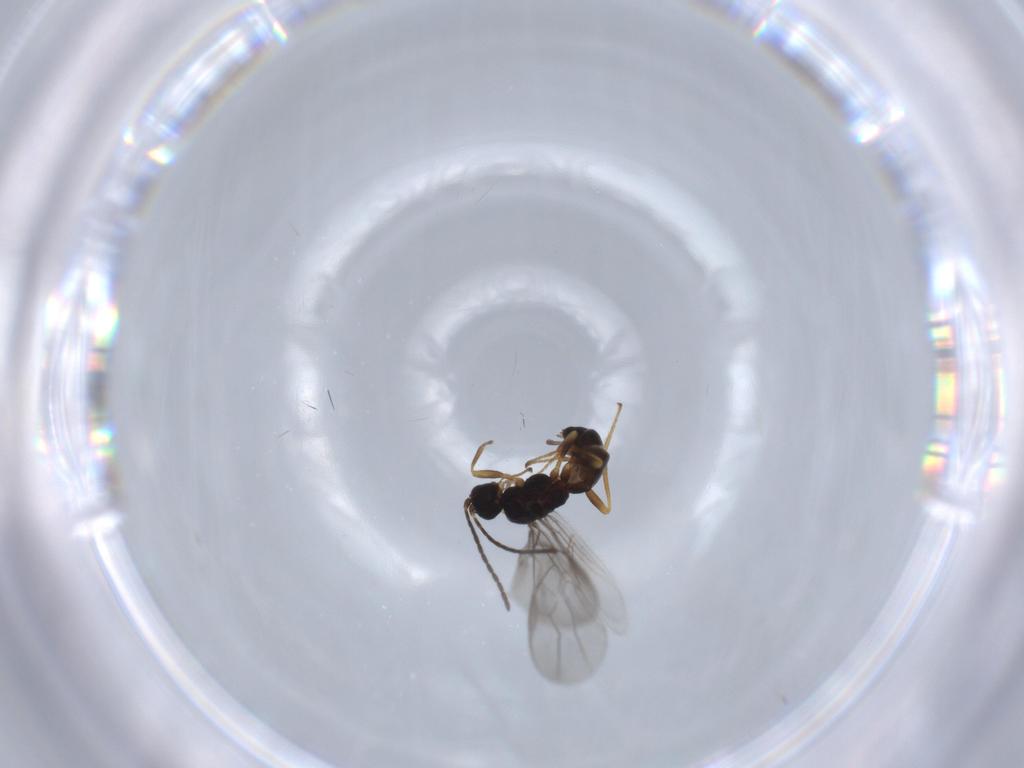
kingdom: Animalia
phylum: Arthropoda
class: Insecta
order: Hymenoptera
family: Braconidae
